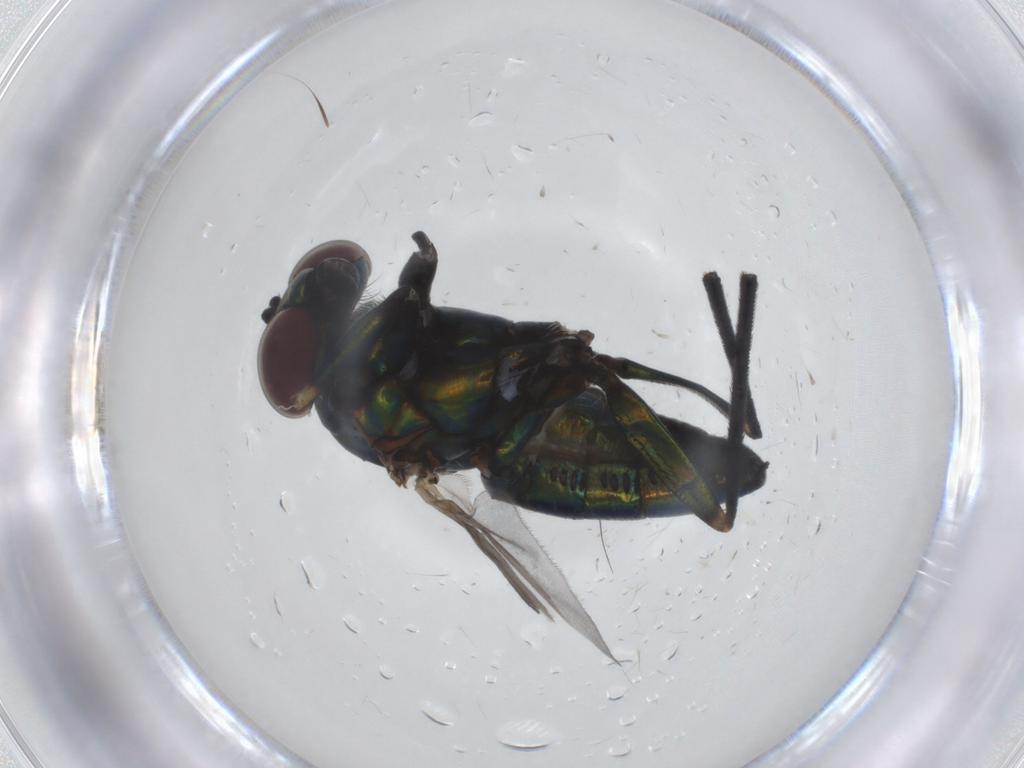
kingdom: Animalia
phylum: Arthropoda
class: Insecta
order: Diptera
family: Dolichopodidae
